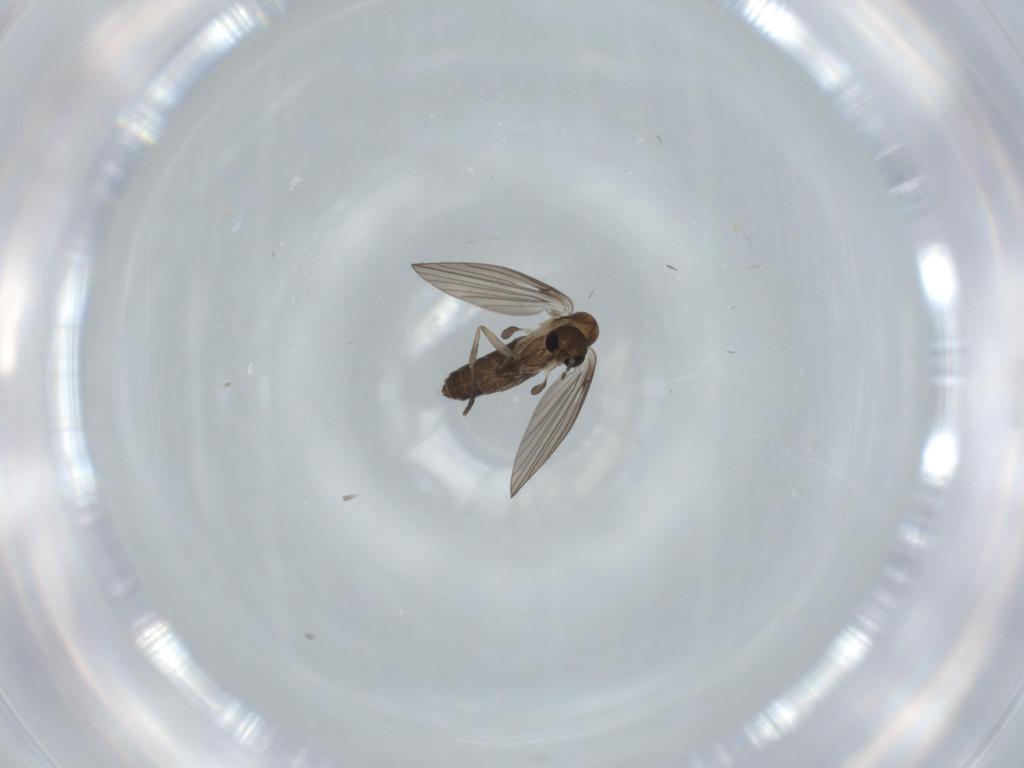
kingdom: Animalia
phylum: Arthropoda
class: Insecta
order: Diptera
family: Psychodidae
